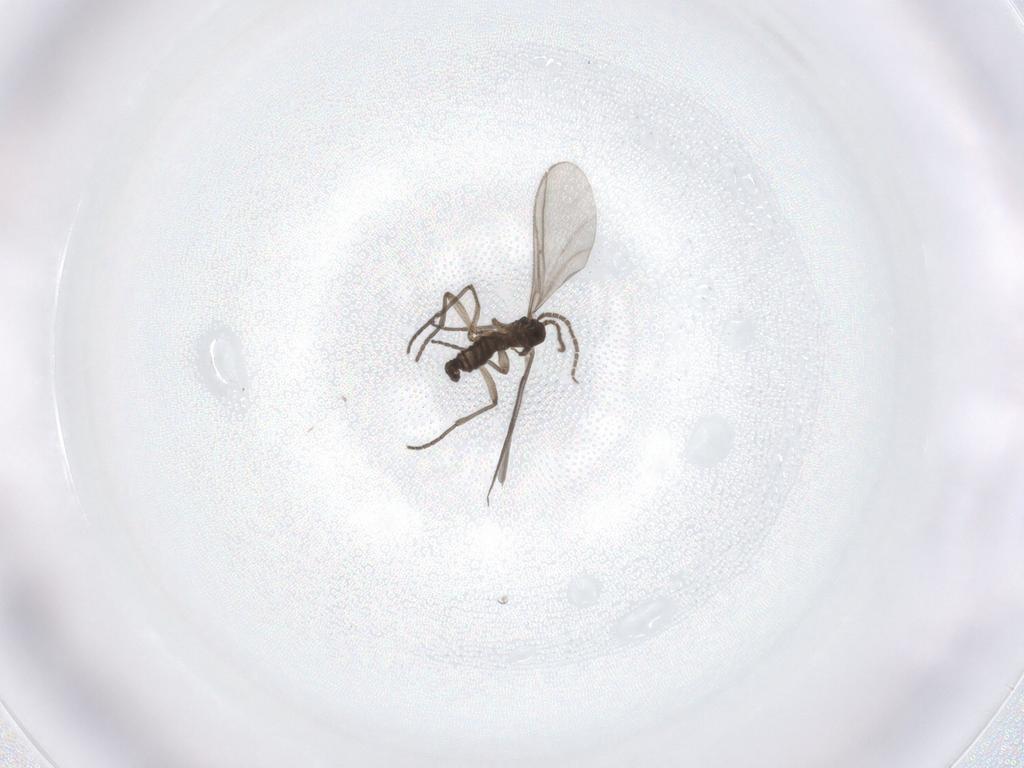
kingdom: Animalia
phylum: Arthropoda
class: Insecta
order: Diptera
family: Sciaridae
